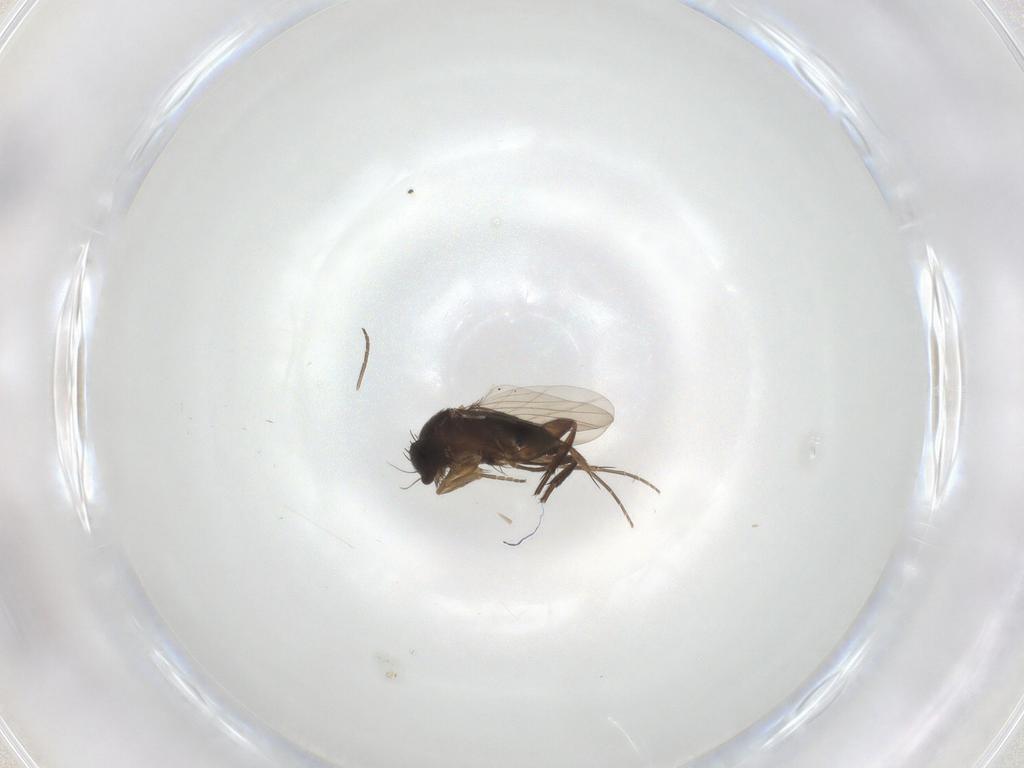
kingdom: Animalia
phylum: Arthropoda
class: Insecta
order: Diptera
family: Phoridae
